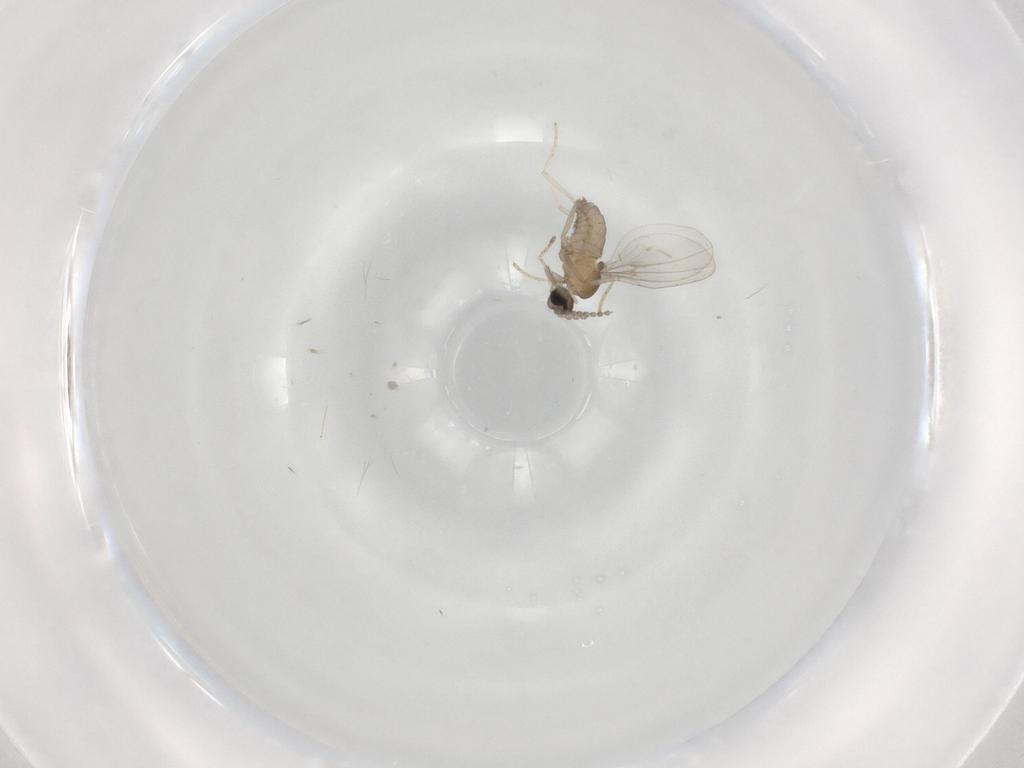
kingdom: Animalia
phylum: Arthropoda
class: Insecta
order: Diptera
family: Cecidomyiidae
